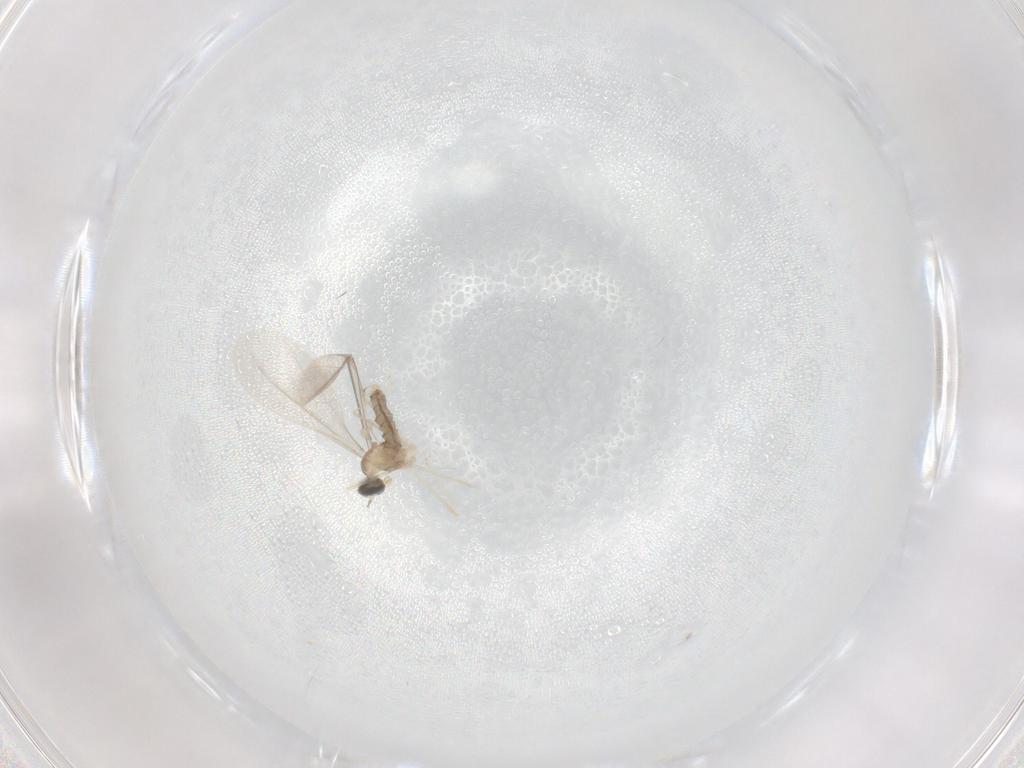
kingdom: Animalia
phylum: Arthropoda
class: Insecta
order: Diptera
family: Cecidomyiidae
